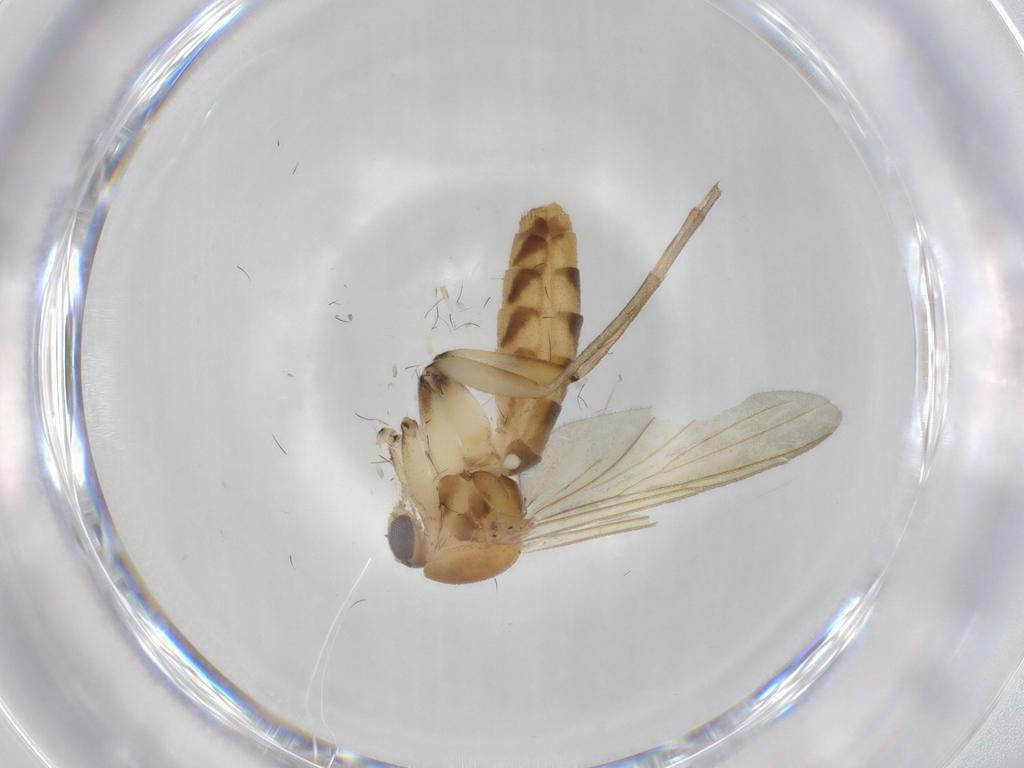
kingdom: Animalia
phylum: Arthropoda
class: Insecta
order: Diptera
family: Mycetophilidae
